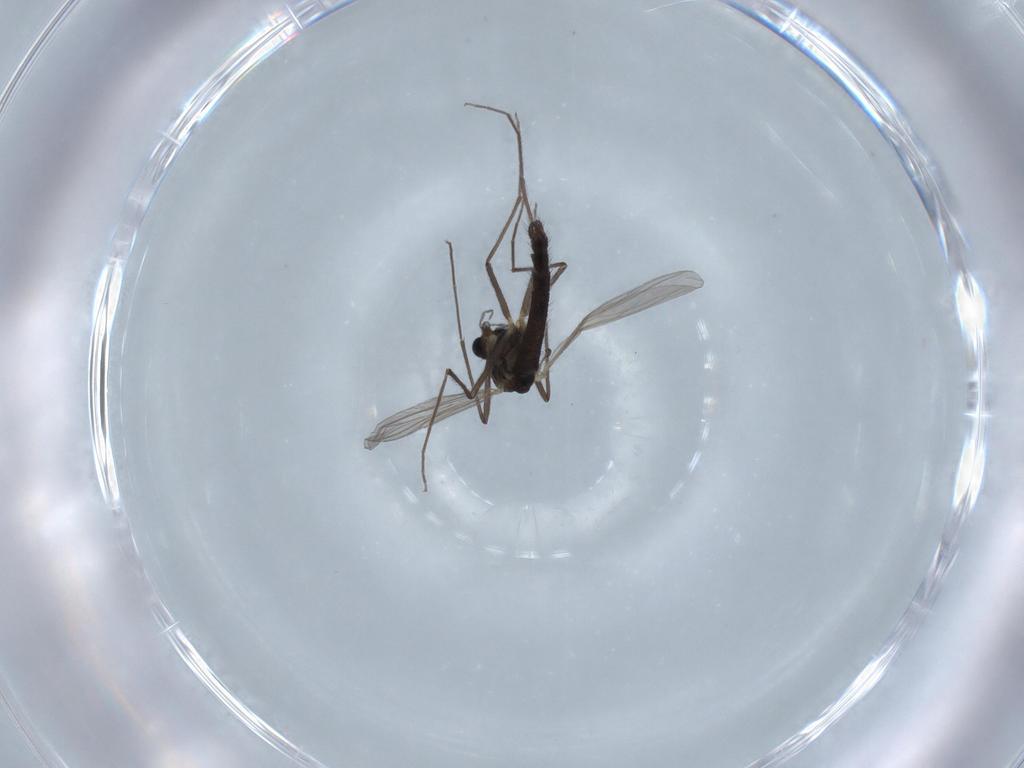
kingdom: Animalia
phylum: Arthropoda
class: Insecta
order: Diptera
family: Chironomidae
